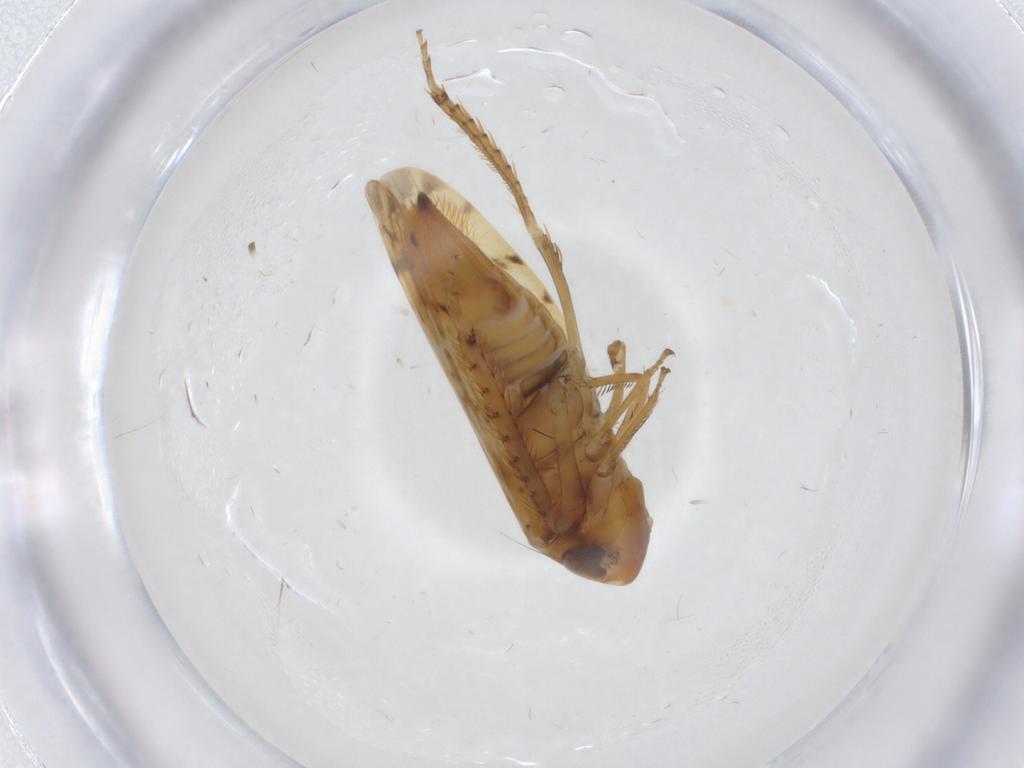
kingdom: Animalia
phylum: Arthropoda
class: Insecta
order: Hemiptera
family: Cicadellidae
